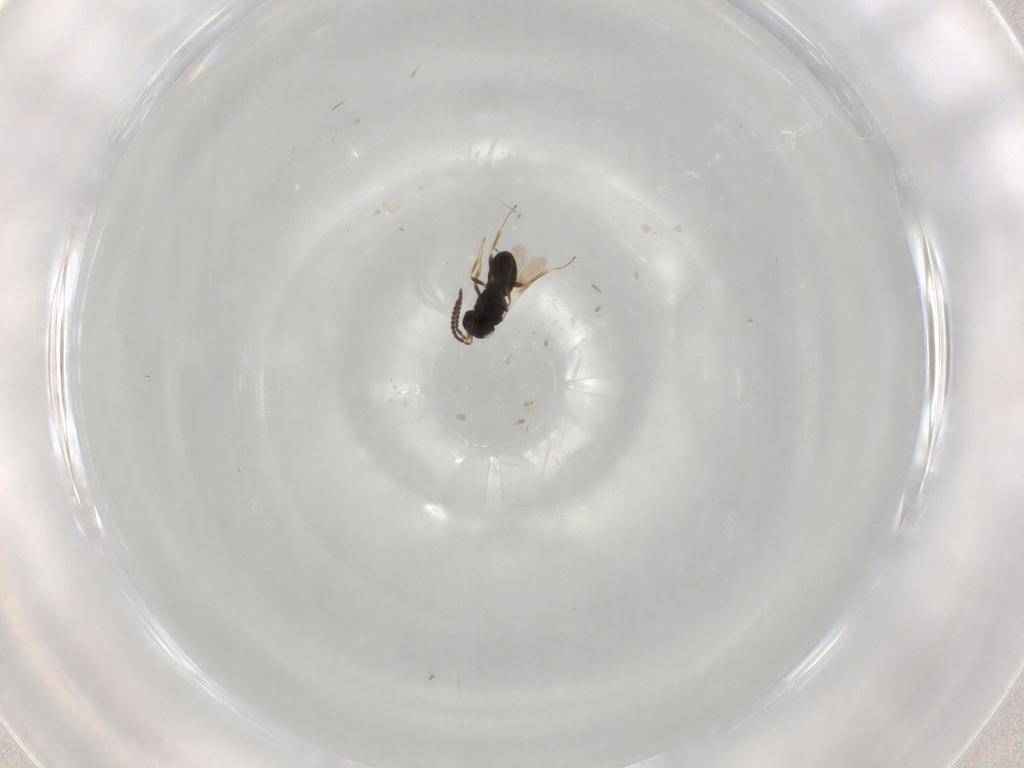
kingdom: Animalia
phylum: Arthropoda
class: Insecta
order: Hymenoptera
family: Scelionidae
